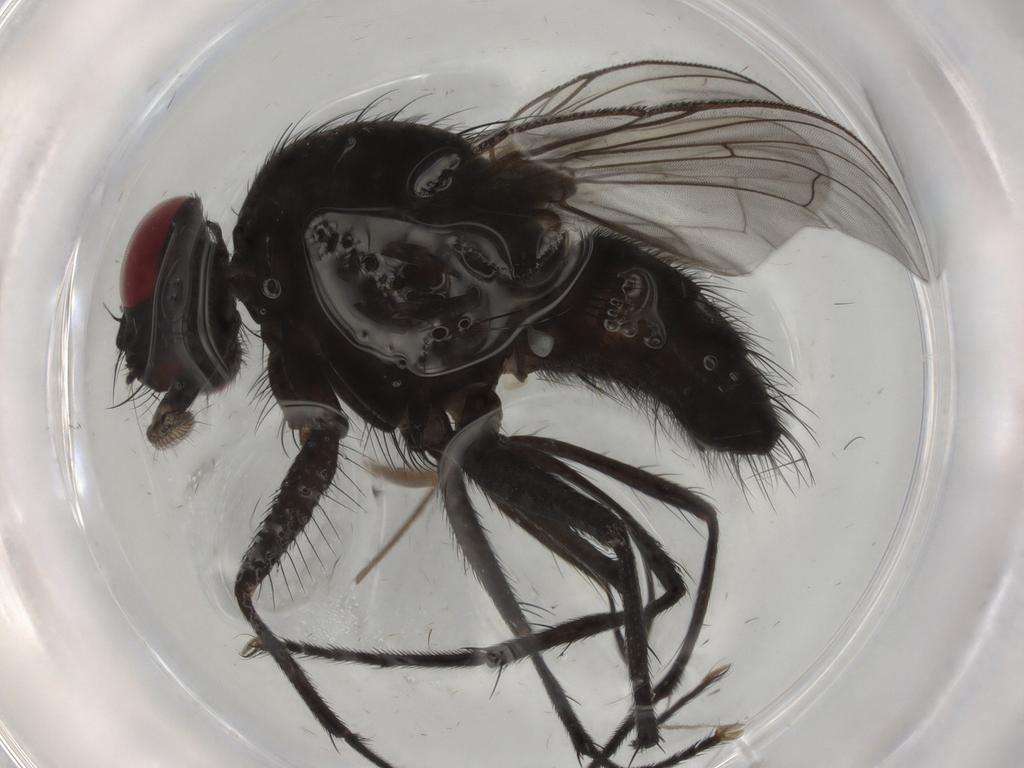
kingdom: Animalia
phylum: Arthropoda
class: Insecta
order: Diptera
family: Muscidae
